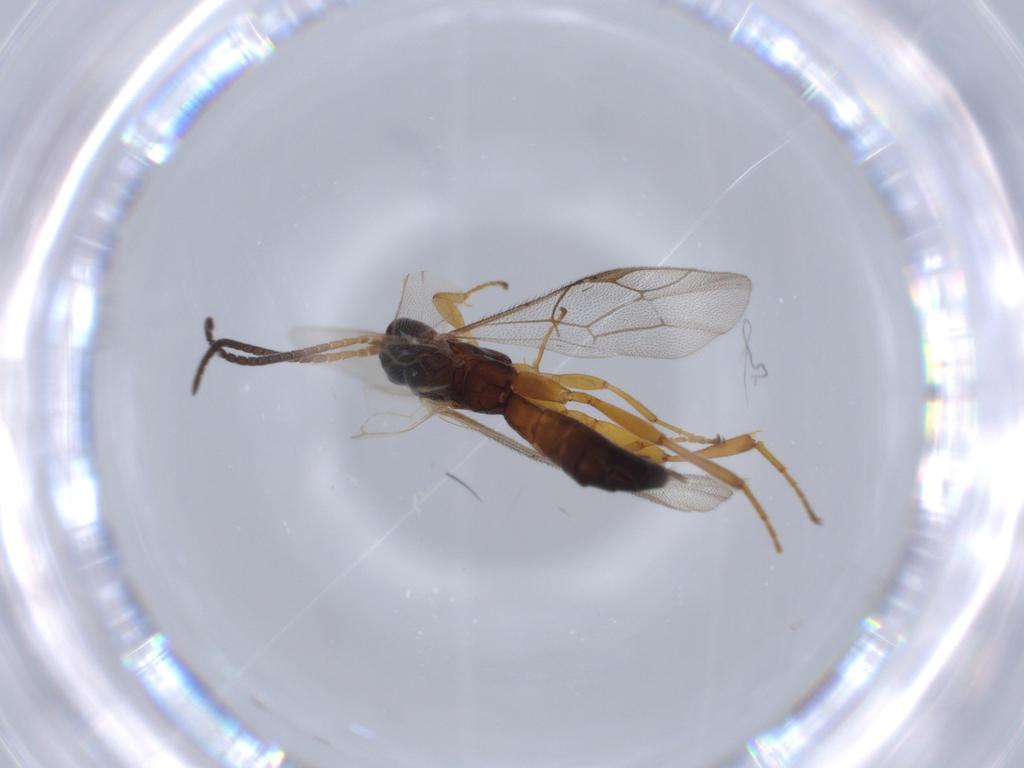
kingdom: Animalia
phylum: Arthropoda
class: Insecta
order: Hymenoptera
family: Ichneumonidae
